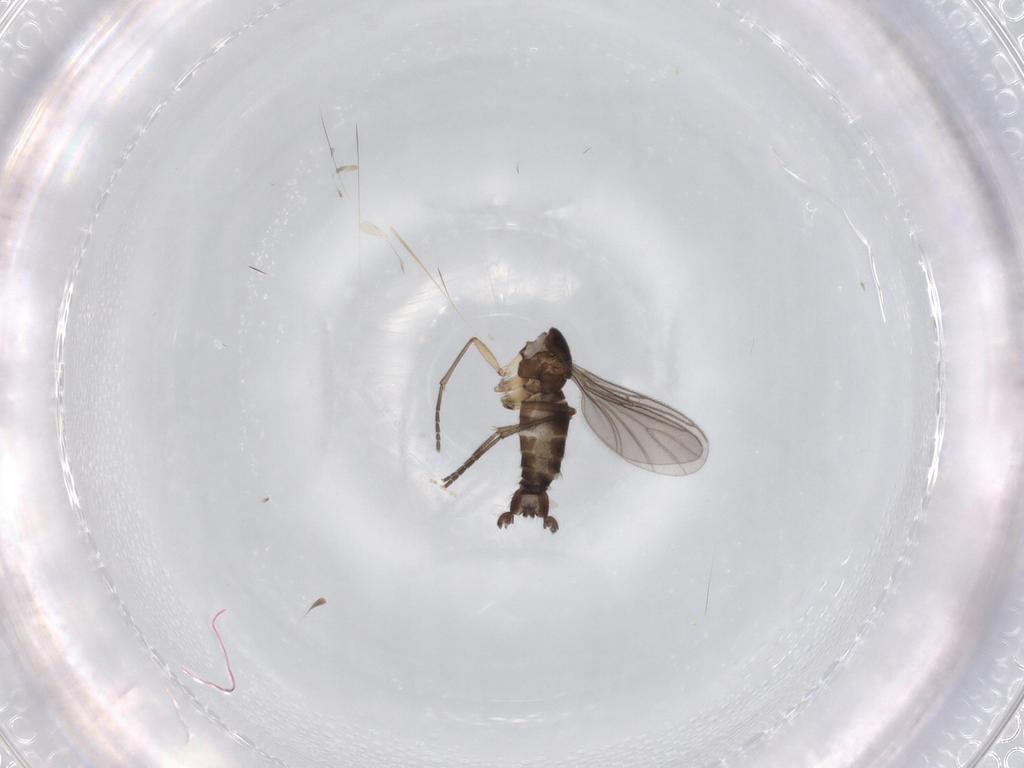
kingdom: Animalia
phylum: Arthropoda
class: Insecta
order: Diptera
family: Sciaridae
